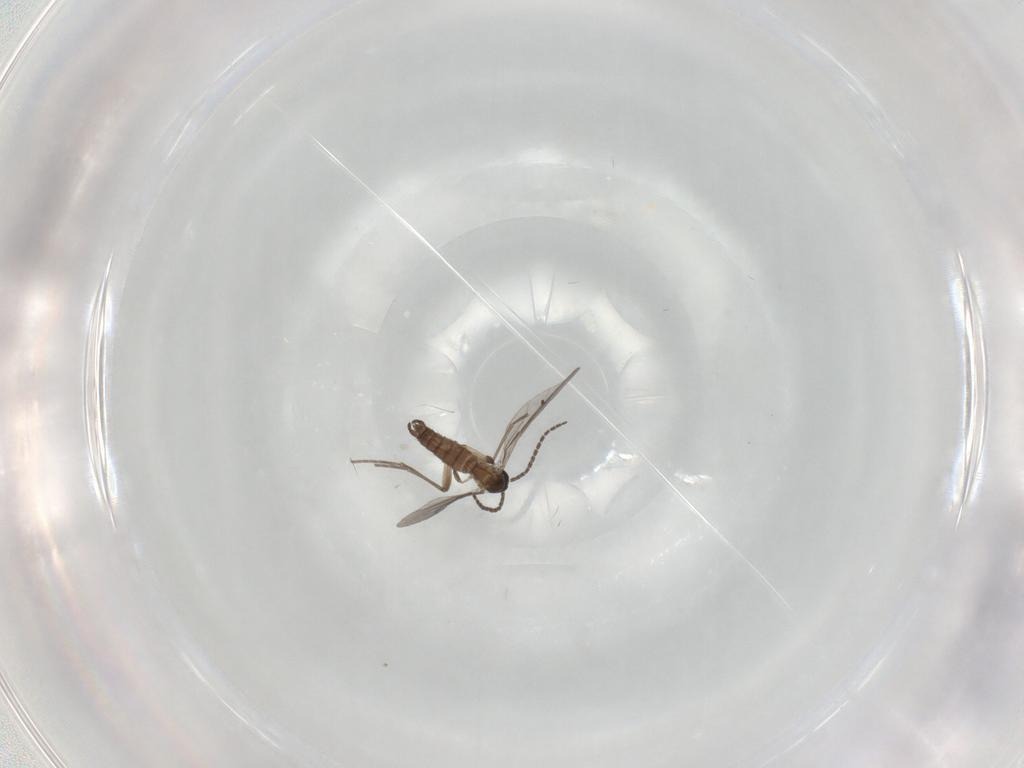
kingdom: Animalia
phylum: Arthropoda
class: Insecta
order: Diptera
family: Sciaridae
